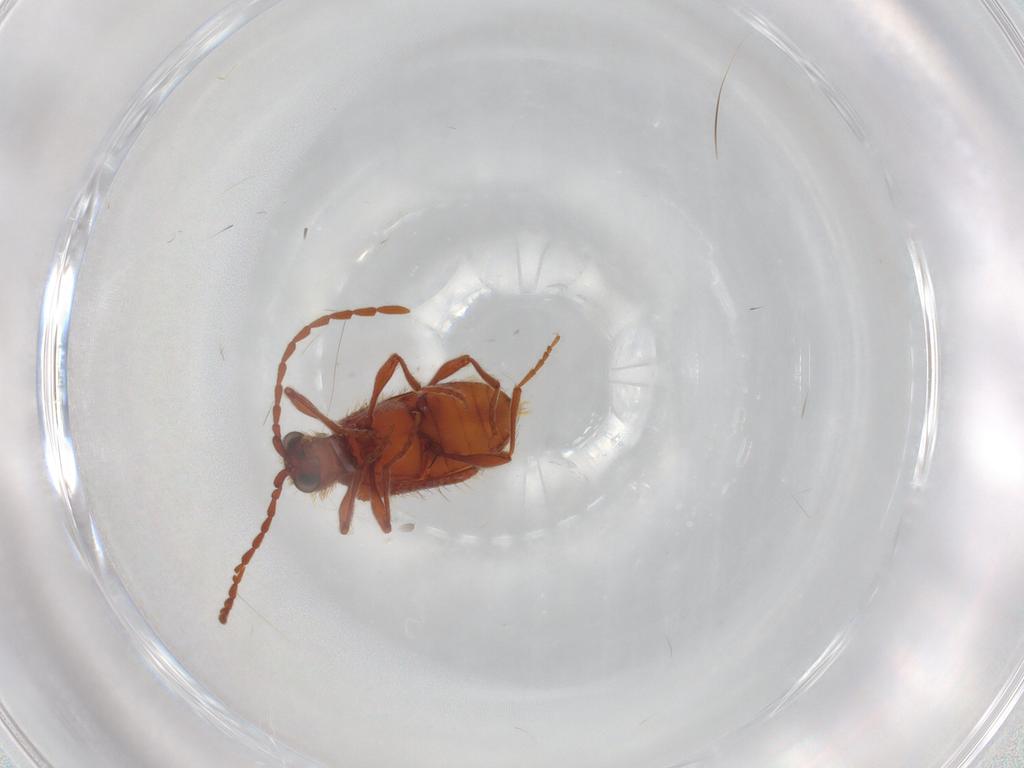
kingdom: Animalia
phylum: Arthropoda
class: Insecta
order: Coleoptera
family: Ptinidae
